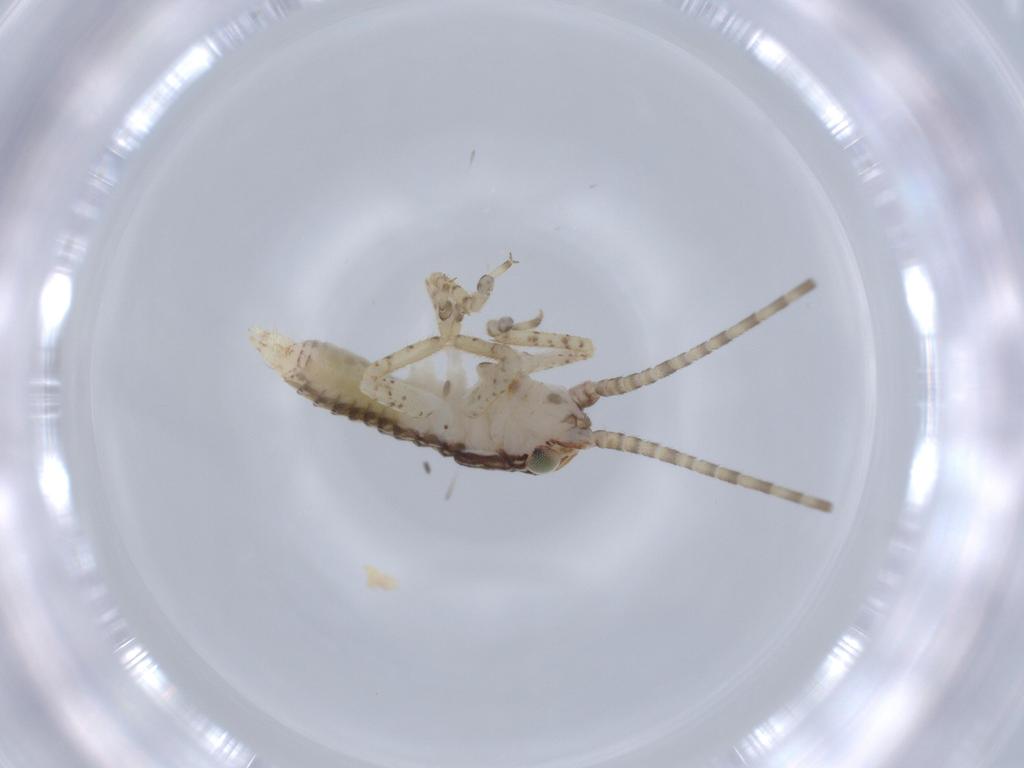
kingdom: Animalia
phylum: Arthropoda
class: Insecta
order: Orthoptera
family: Gryllidae
